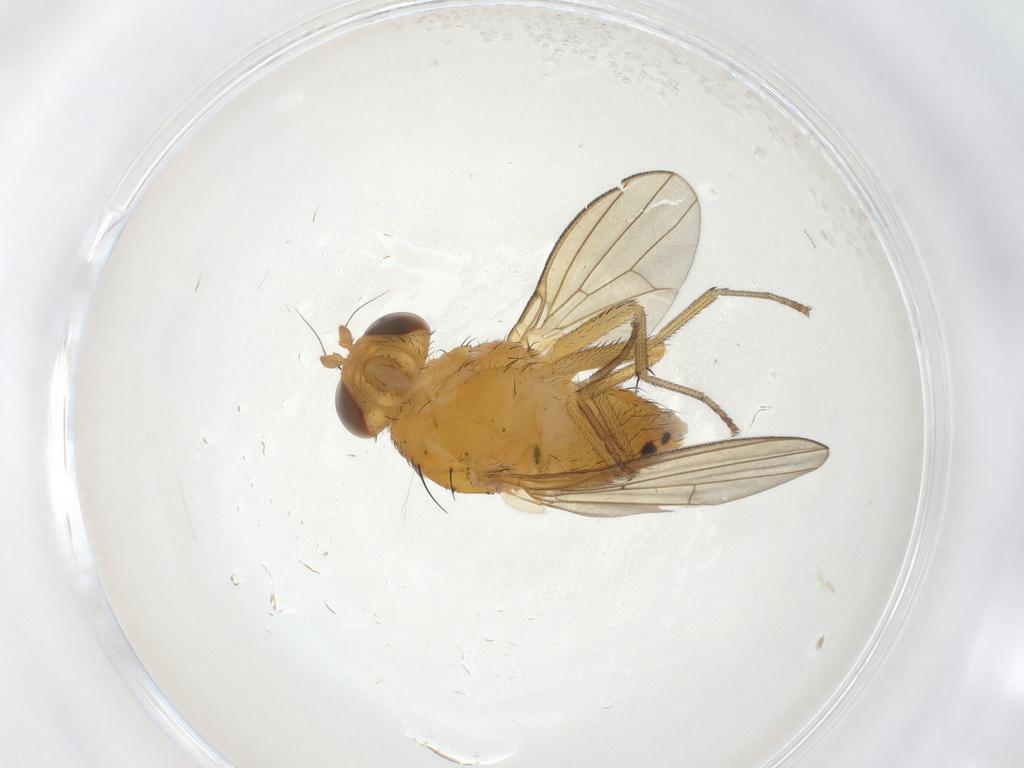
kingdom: Animalia
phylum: Arthropoda
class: Insecta
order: Diptera
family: Lauxaniidae
